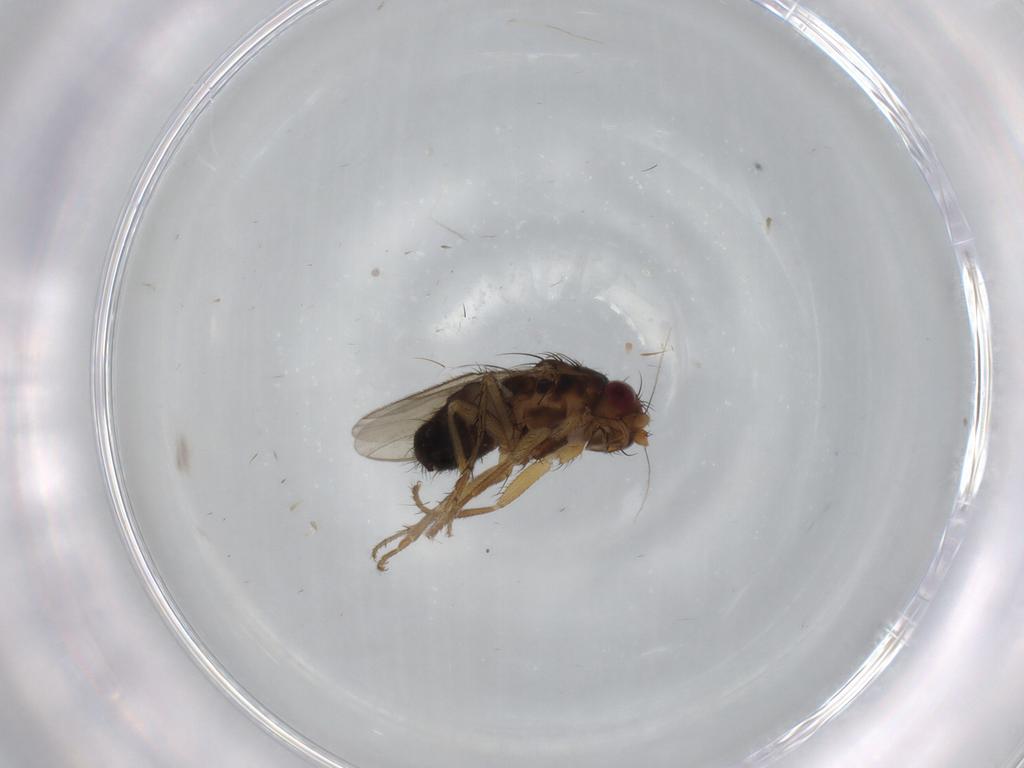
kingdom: Animalia
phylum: Arthropoda
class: Insecta
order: Diptera
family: Sphaeroceridae
